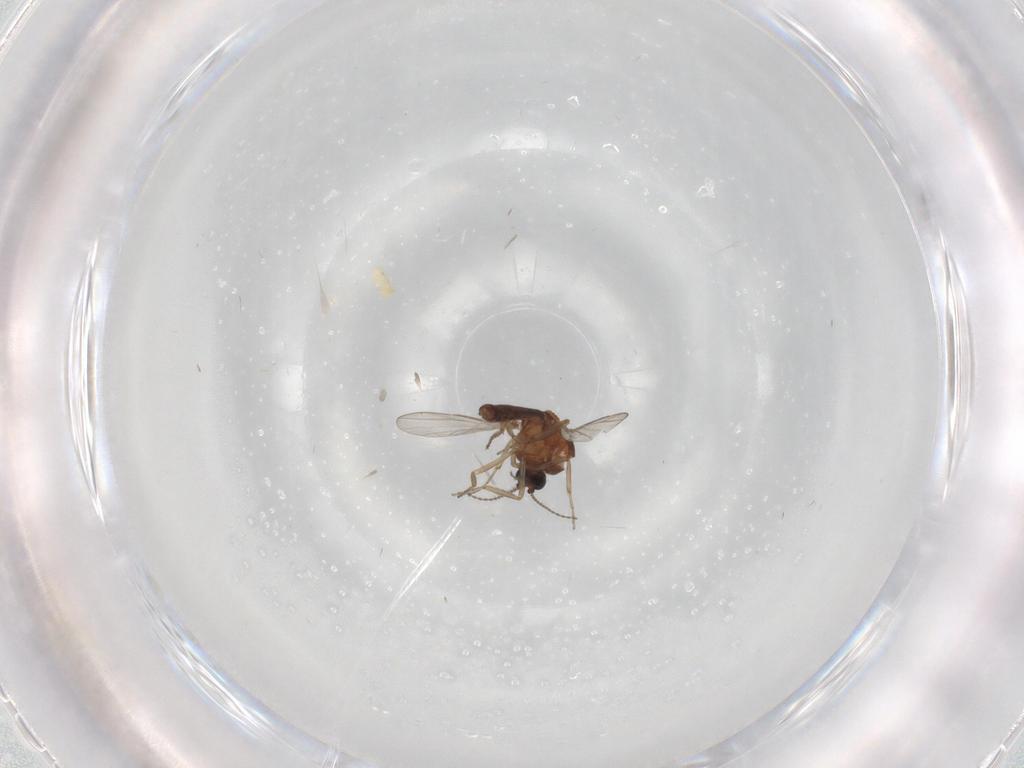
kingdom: Animalia
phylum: Arthropoda
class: Insecta
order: Diptera
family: Ceratopogonidae
